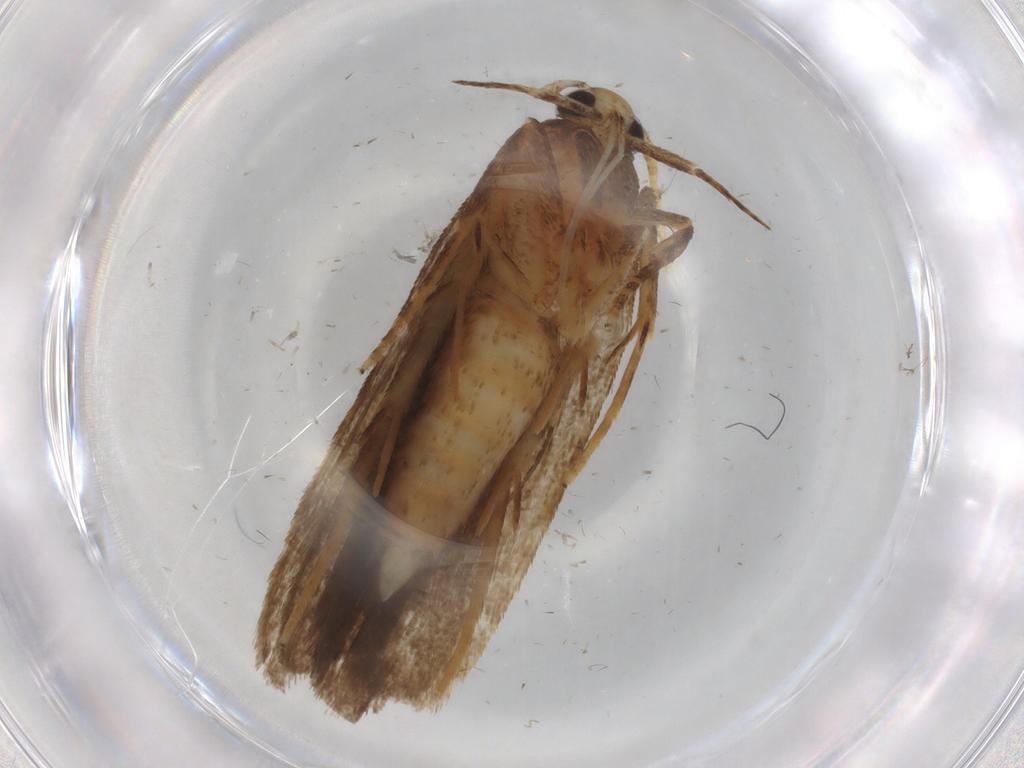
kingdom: Animalia
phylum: Arthropoda
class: Insecta
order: Lepidoptera
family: Autostichidae
